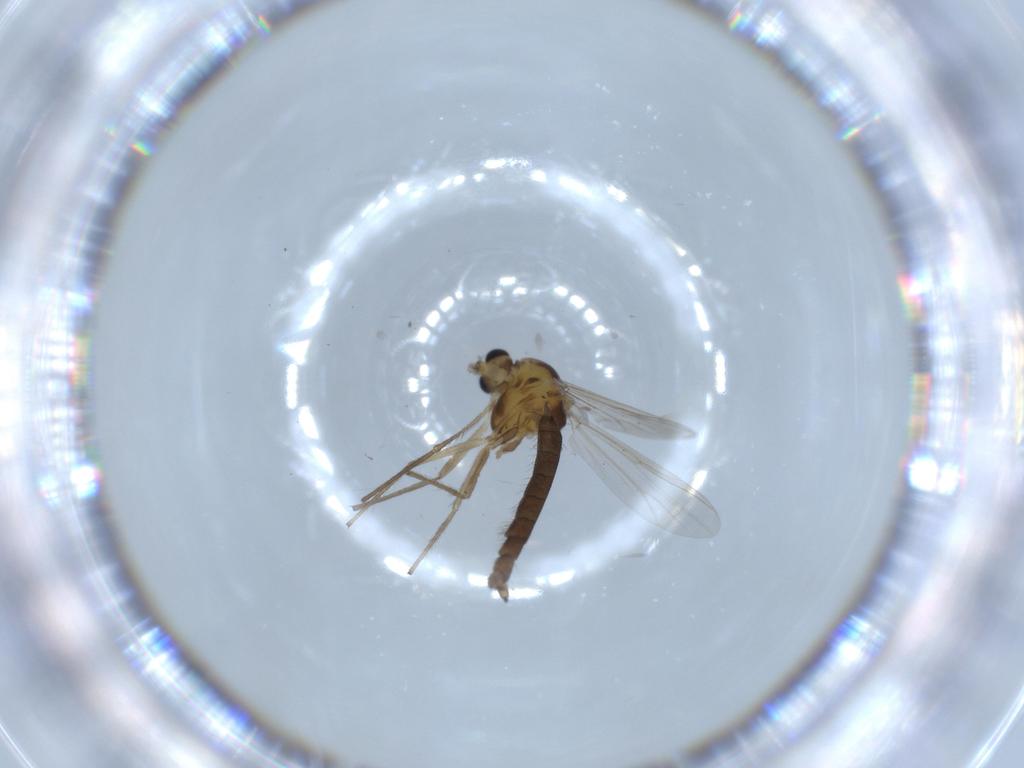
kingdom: Animalia
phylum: Arthropoda
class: Insecta
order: Diptera
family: Chironomidae
